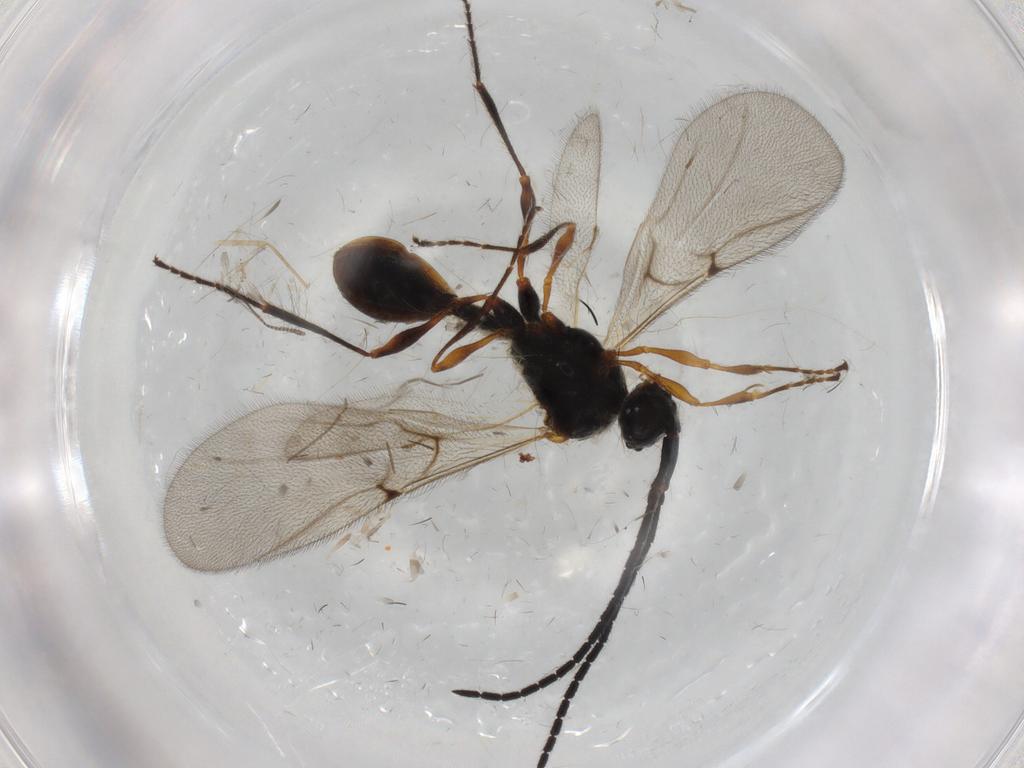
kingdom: Animalia
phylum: Arthropoda
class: Insecta
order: Hymenoptera
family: Diapriidae
